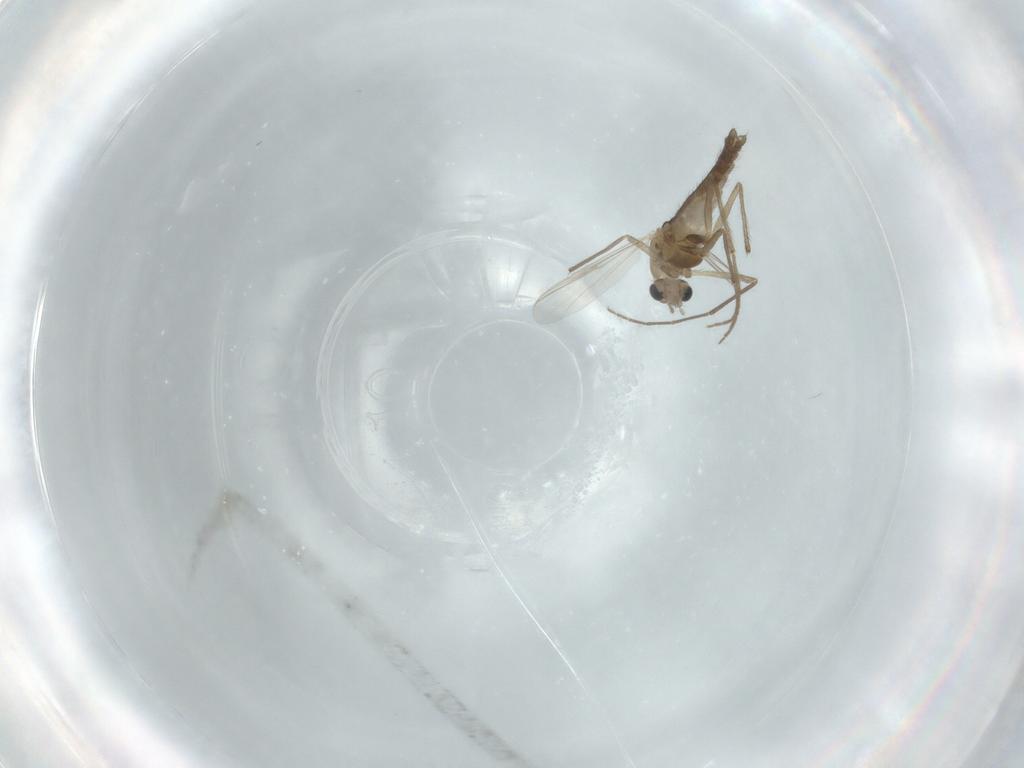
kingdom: Animalia
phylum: Arthropoda
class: Insecta
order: Diptera
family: Chironomidae
